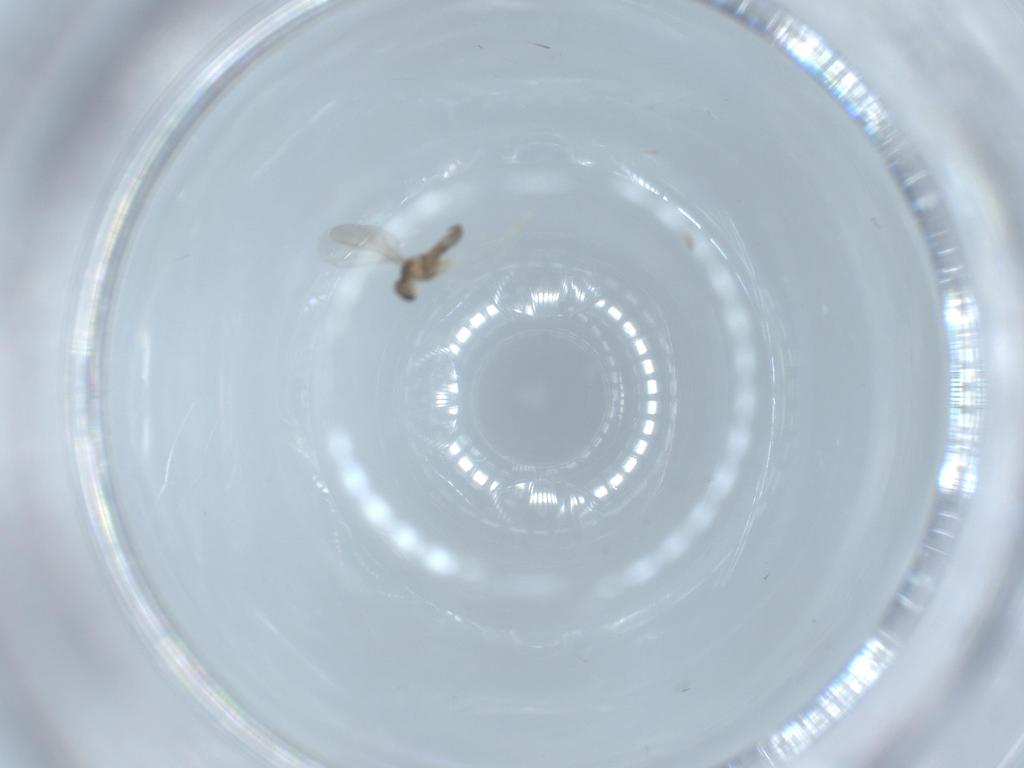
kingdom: Animalia
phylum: Arthropoda
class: Insecta
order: Diptera
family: Cecidomyiidae
